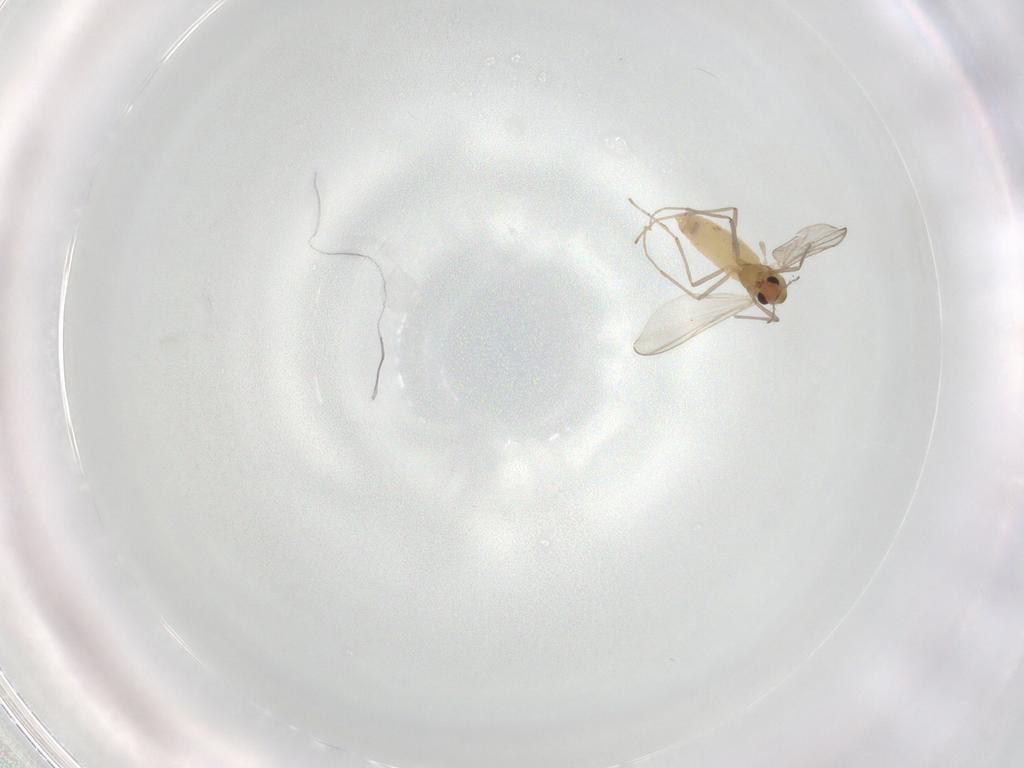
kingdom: Animalia
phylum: Arthropoda
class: Insecta
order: Diptera
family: Chironomidae
